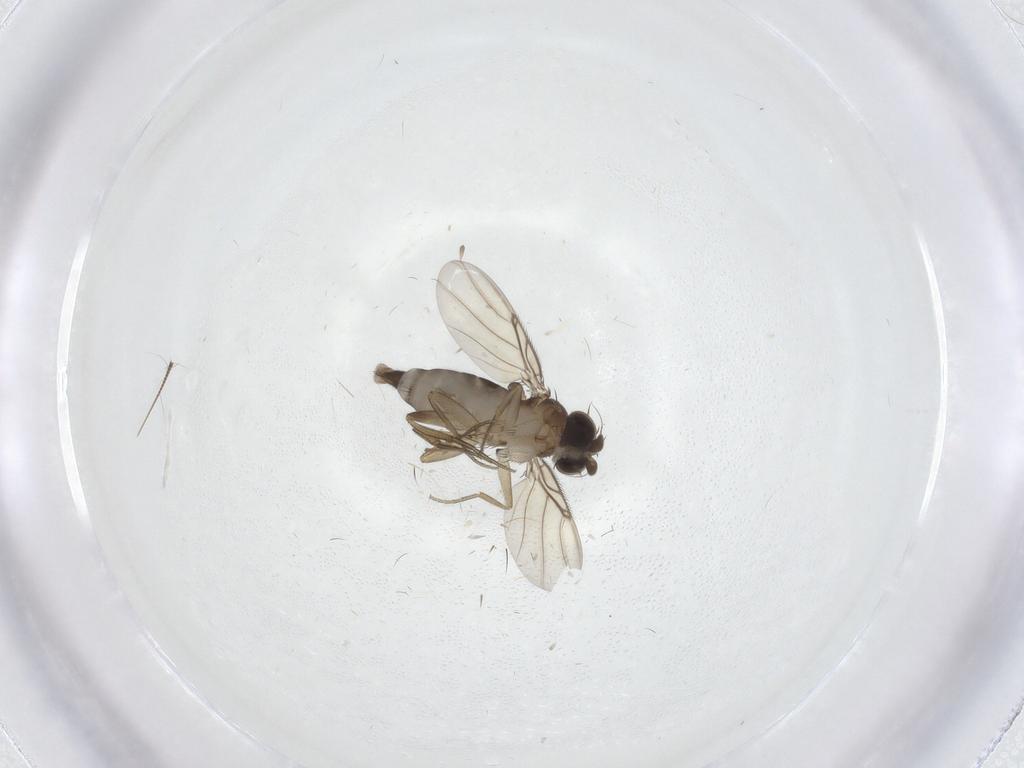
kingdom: Animalia
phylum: Arthropoda
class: Insecta
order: Diptera
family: Phoridae
